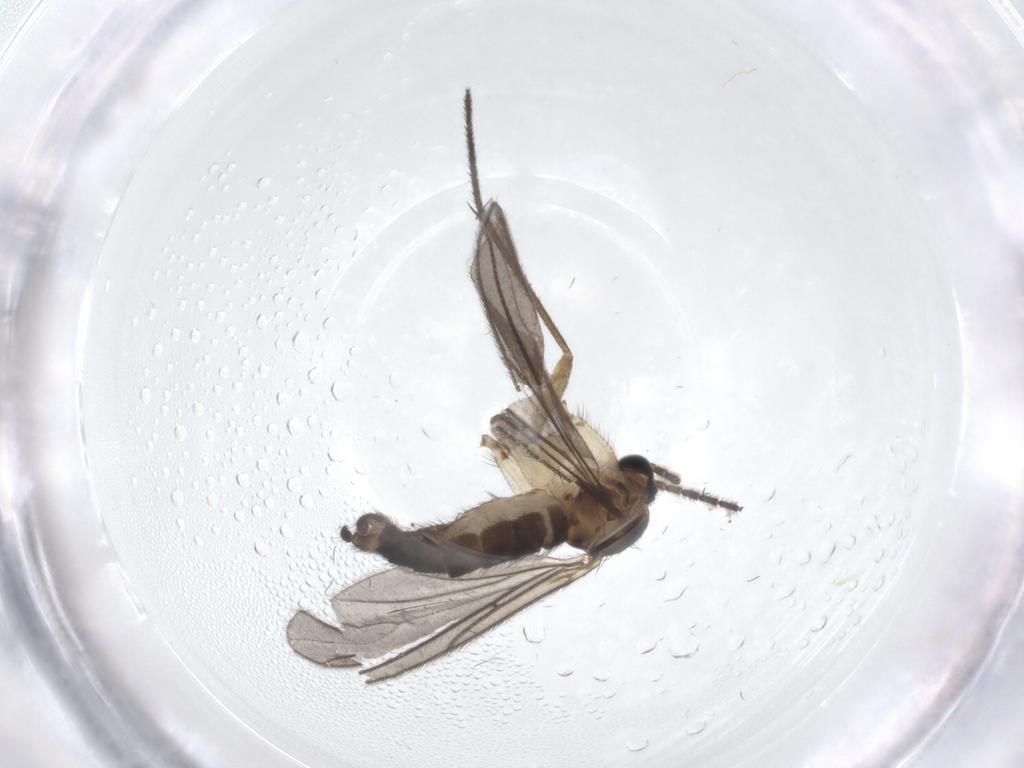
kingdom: Animalia
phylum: Arthropoda
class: Insecta
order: Diptera
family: Sciaridae
